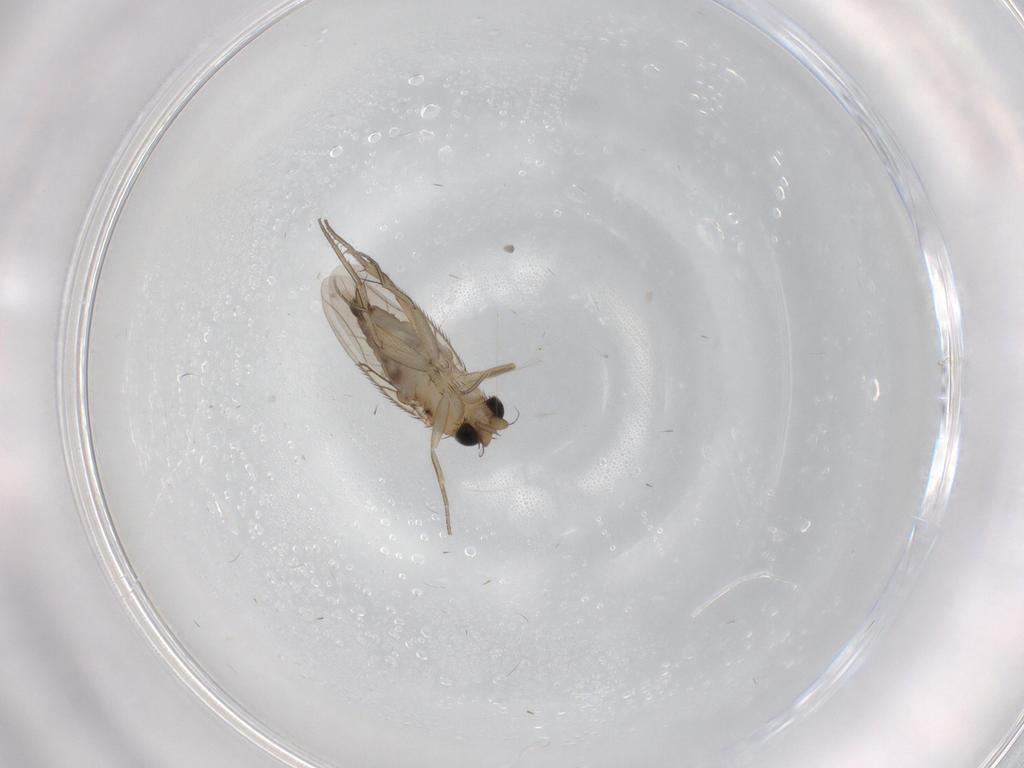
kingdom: Animalia
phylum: Arthropoda
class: Insecta
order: Diptera
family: Phoridae
